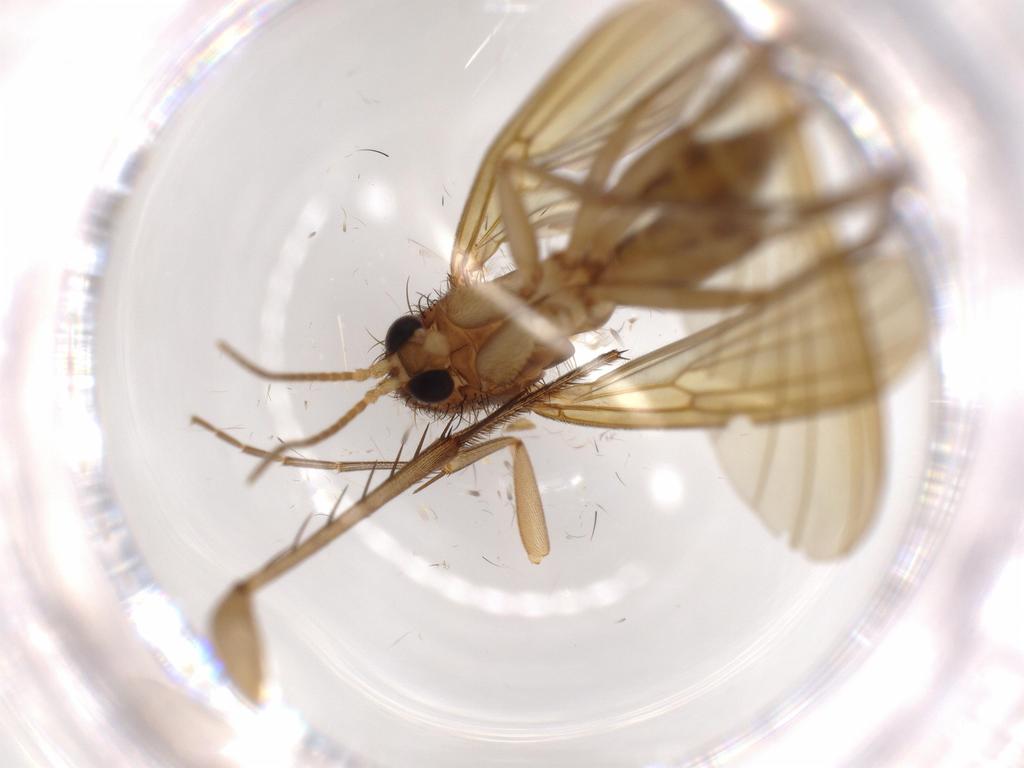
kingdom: Animalia
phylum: Arthropoda
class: Insecta
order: Diptera
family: Mycetophilidae
